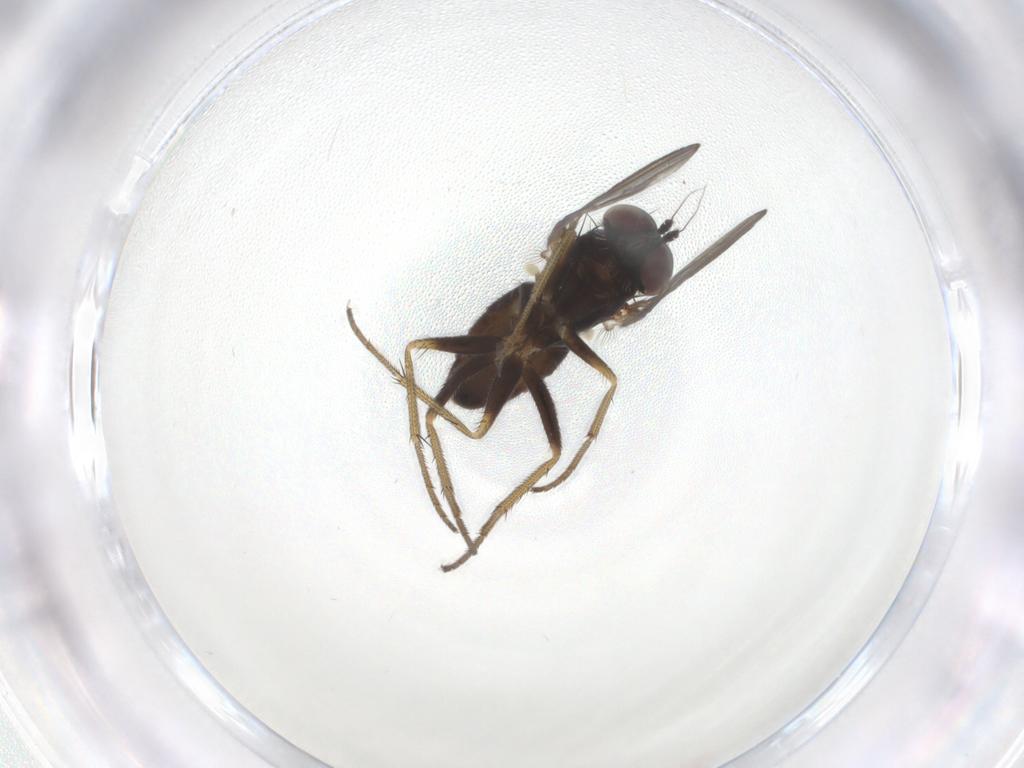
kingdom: Animalia
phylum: Arthropoda
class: Insecta
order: Diptera
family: Dolichopodidae
